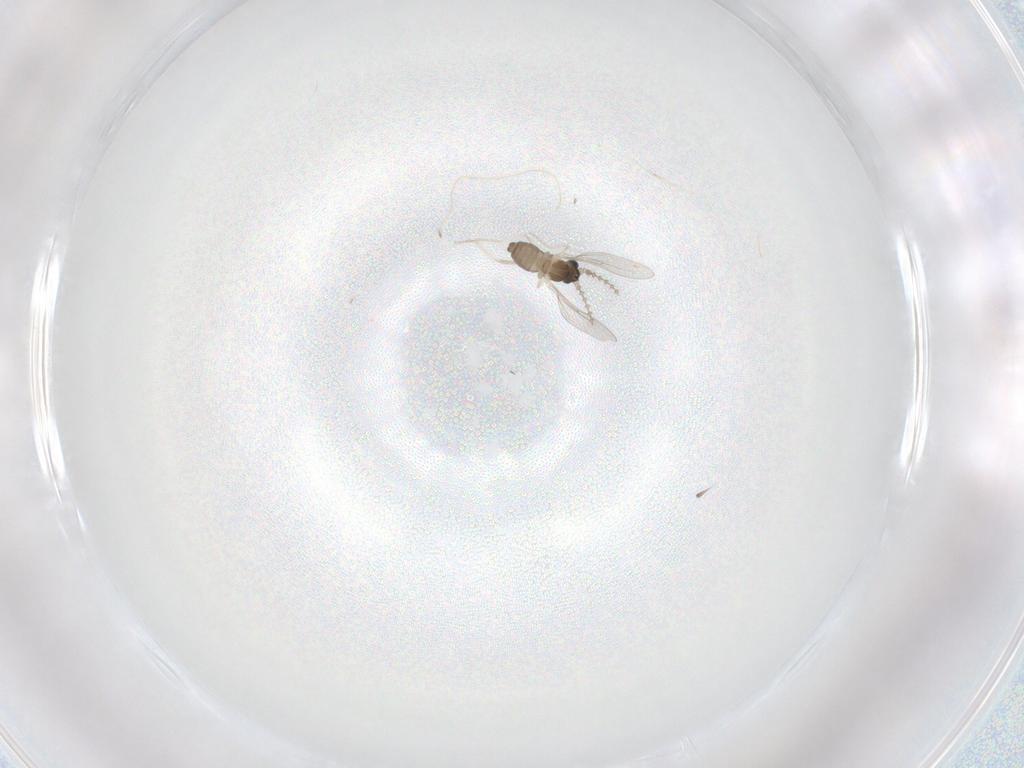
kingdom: Animalia
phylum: Arthropoda
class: Insecta
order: Diptera
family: Cecidomyiidae
